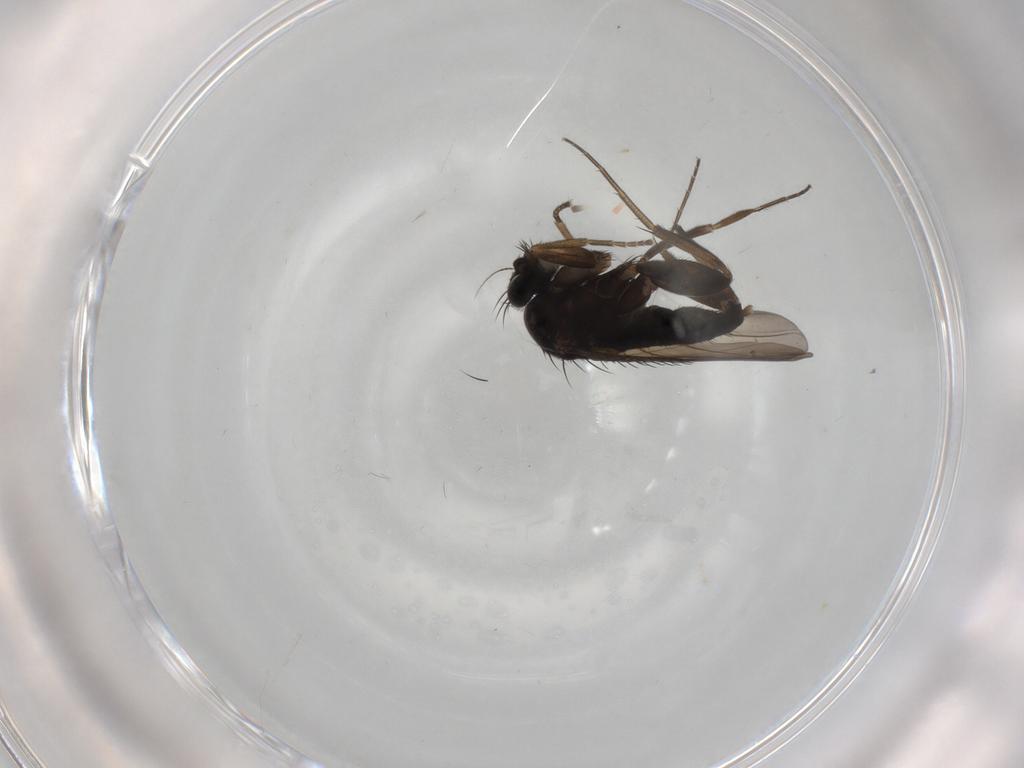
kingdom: Animalia
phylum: Arthropoda
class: Insecta
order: Diptera
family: Phoridae
